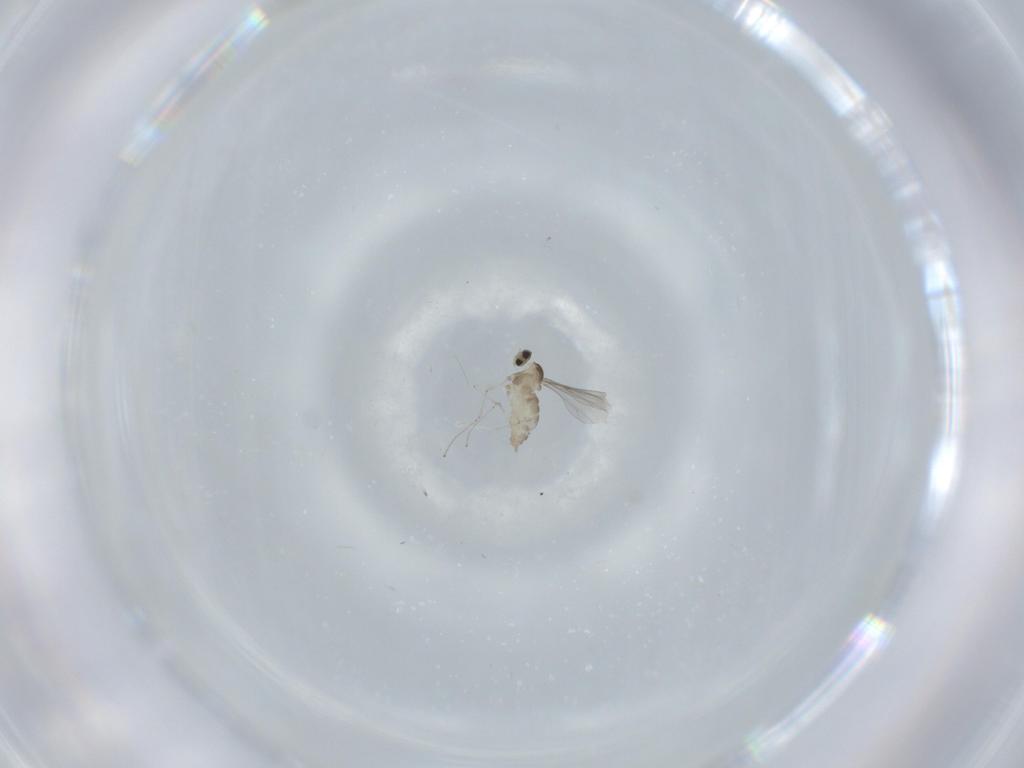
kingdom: Animalia
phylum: Arthropoda
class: Insecta
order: Diptera
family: Cecidomyiidae
